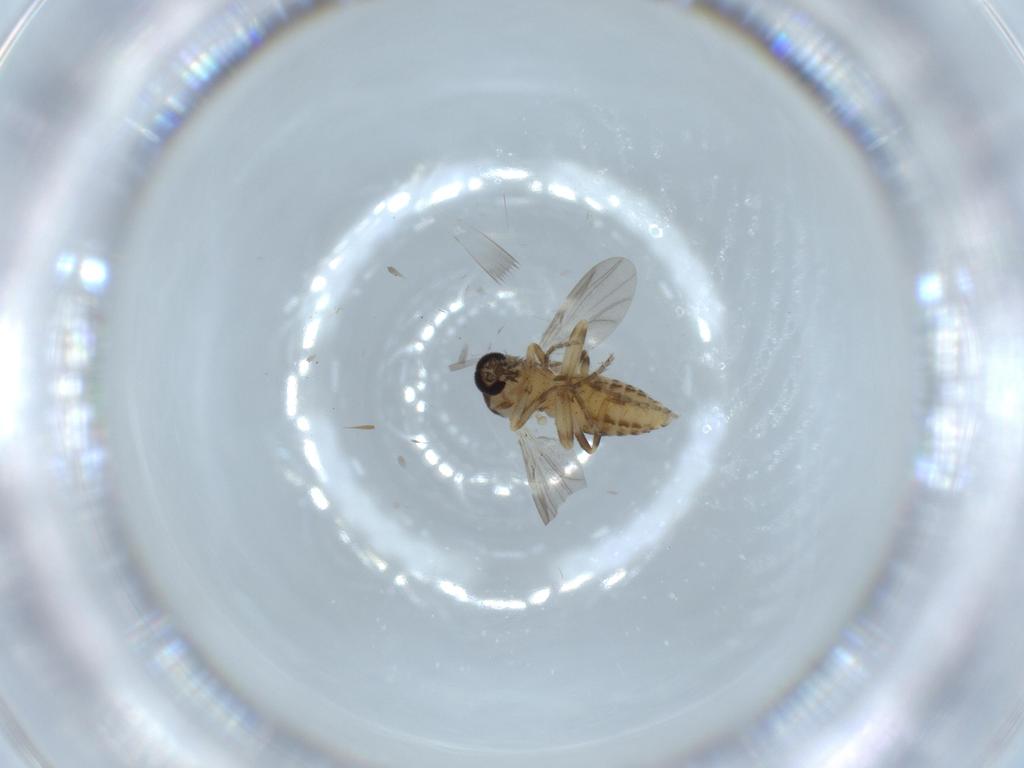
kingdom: Animalia
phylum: Arthropoda
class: Insecta
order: Diptera
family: Ceratopogonidae
